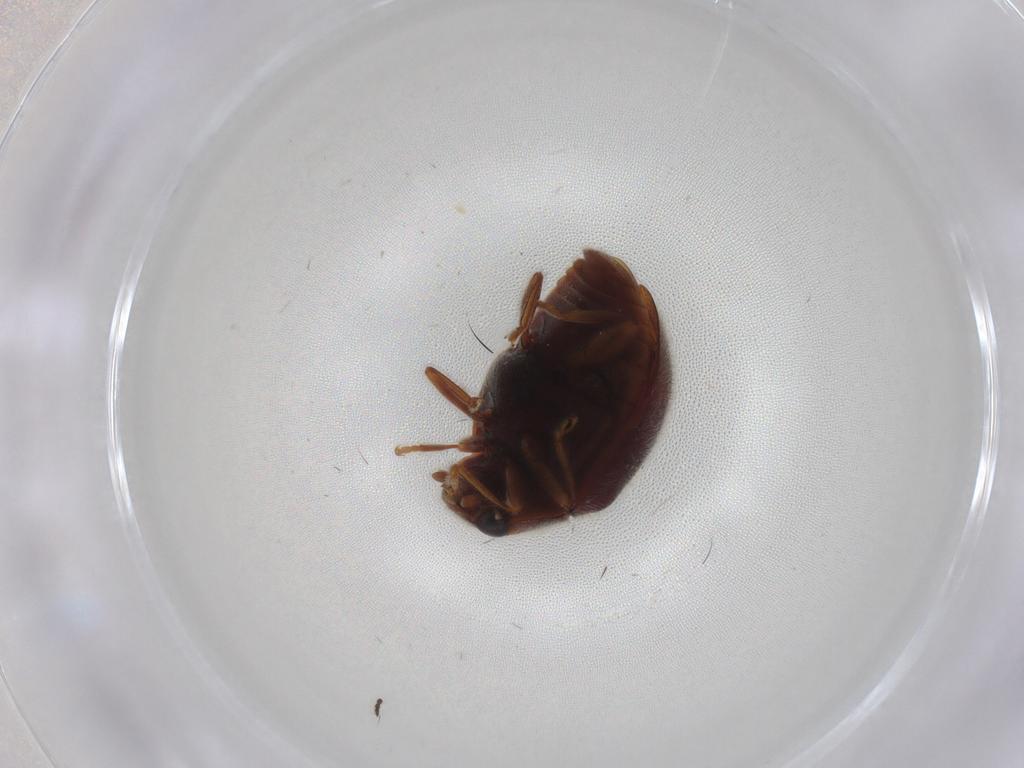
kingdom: Animalia
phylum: Arthropoda
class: Insecta
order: Coleoptera
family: Coccinellidae
